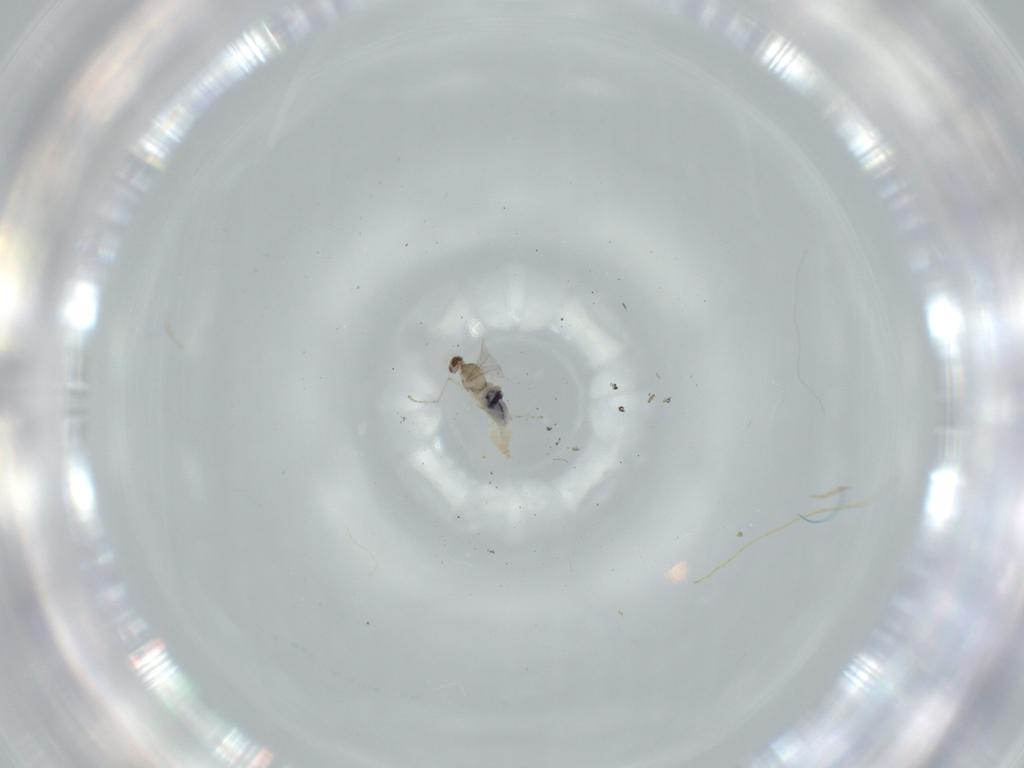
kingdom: Animalia
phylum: Arthropoda
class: Insecta
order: Diptera
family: Cecidomyiidae
